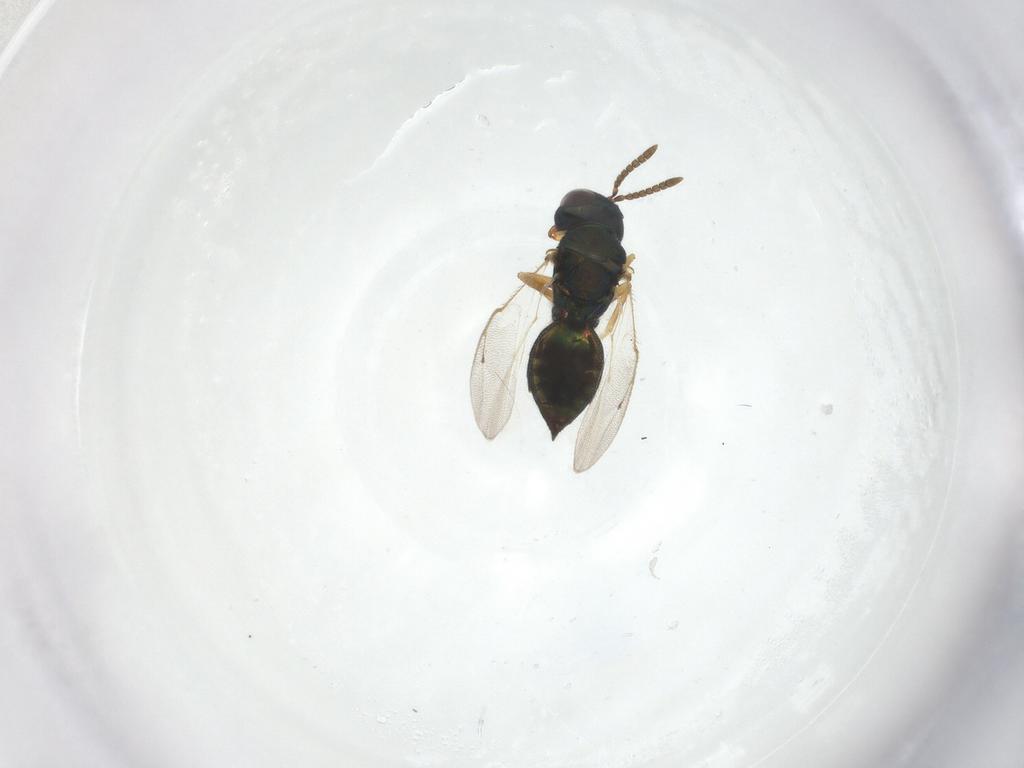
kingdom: Animalia
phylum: Arthropoda
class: Insecta
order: Hymenoptera
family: Pteromalidae
